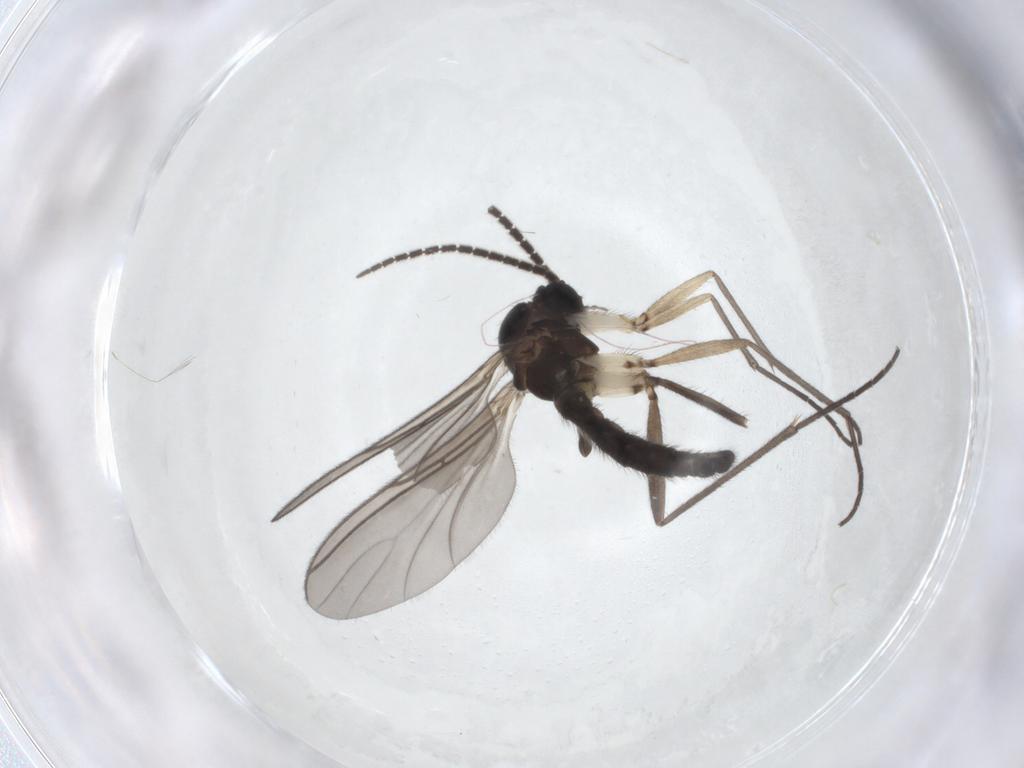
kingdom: Animalia
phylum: Arthropoda
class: Insecta
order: Diptera
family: Sciaridae
